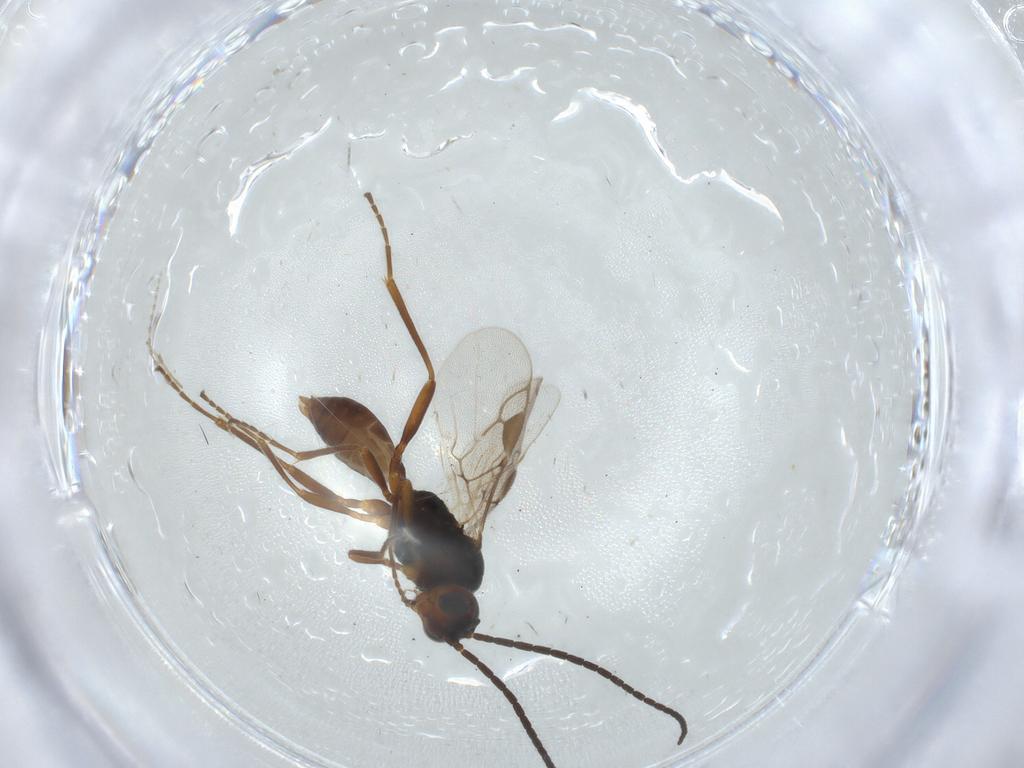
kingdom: Animalia
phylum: Arthropoda
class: Insecta
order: Hymenoptera
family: Braconidae
